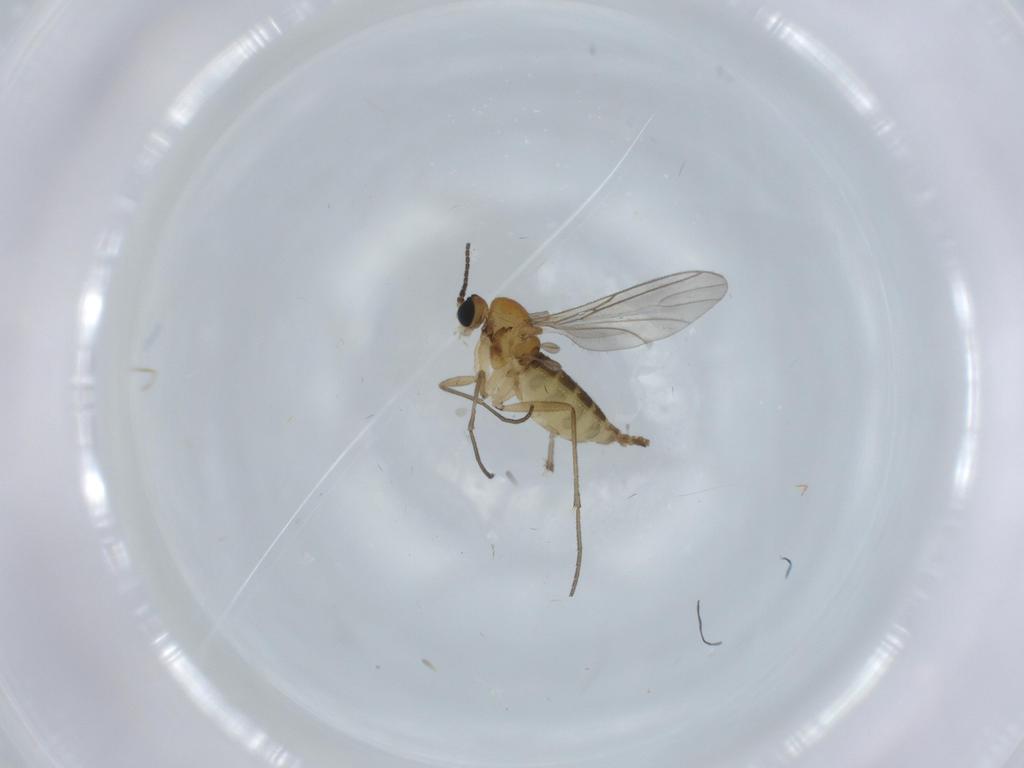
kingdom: Animalia
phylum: Arthropoda
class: Insecta
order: Diptera
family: Sciaridae
